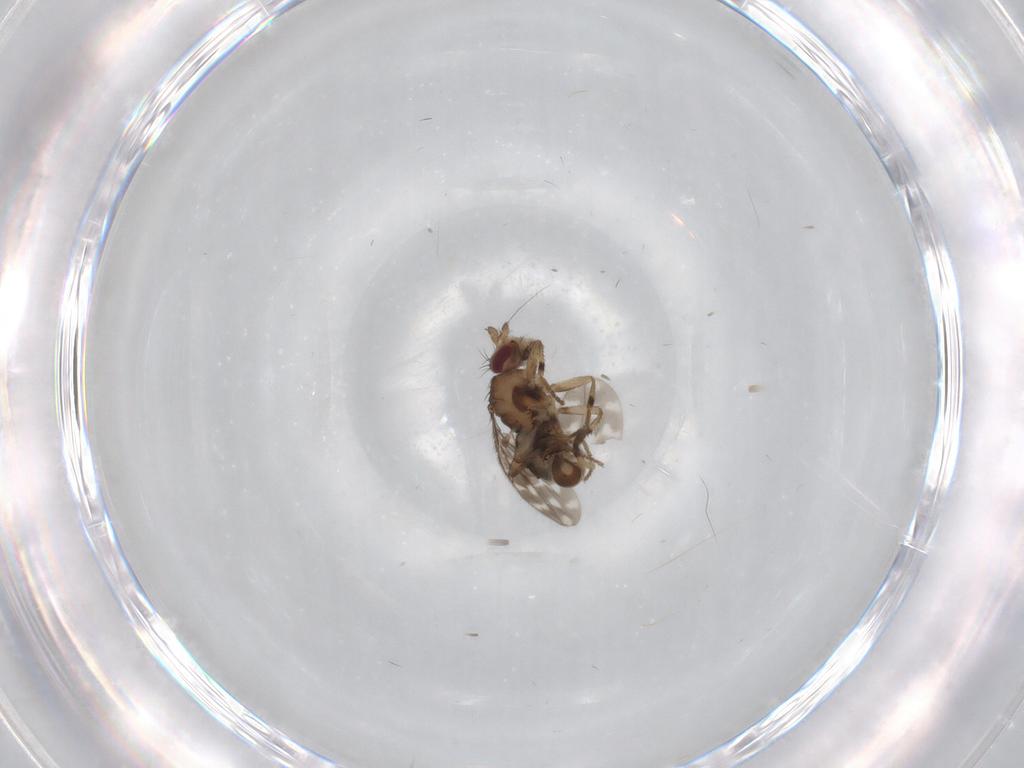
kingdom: Animalia
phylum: Arthropoda
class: Insecta
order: Diptera
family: Sphaeroceridae
